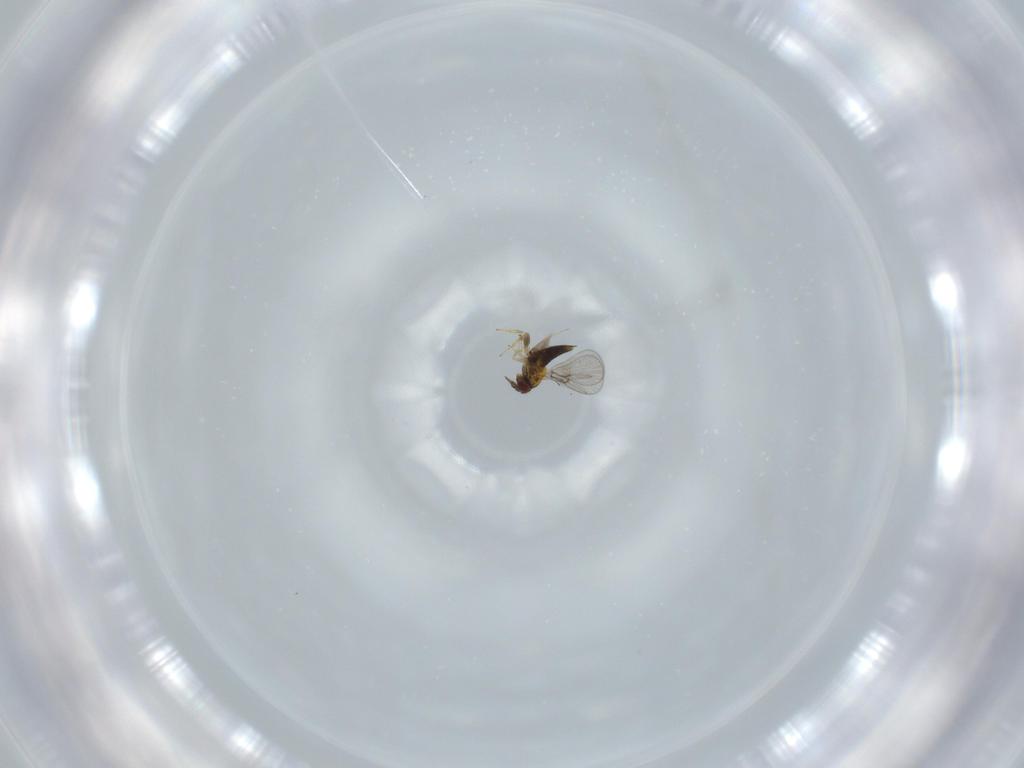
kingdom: Animalia
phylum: Arthropoda
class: Insecta
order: Hymenoptera
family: Trichogrammatidae
